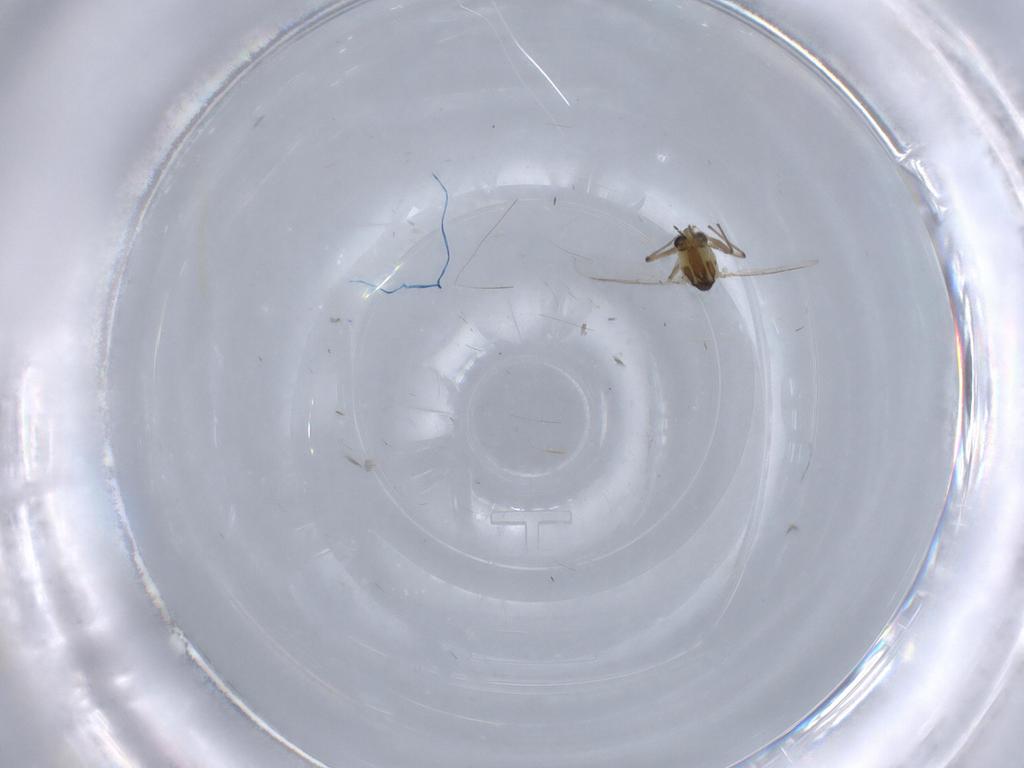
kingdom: Animalia
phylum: Arthropoda
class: Insecta
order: Diptera
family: Chironomidae
